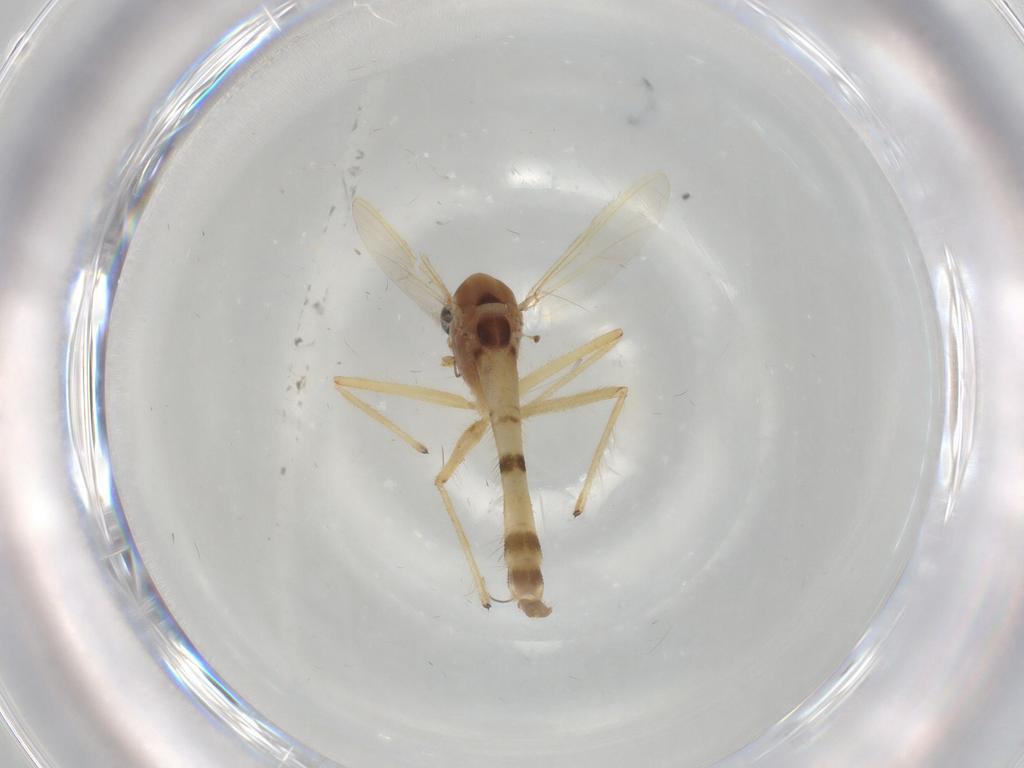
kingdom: Animalia
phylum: Arthropoda
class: Insecta
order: Diptera
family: Chironomidae
